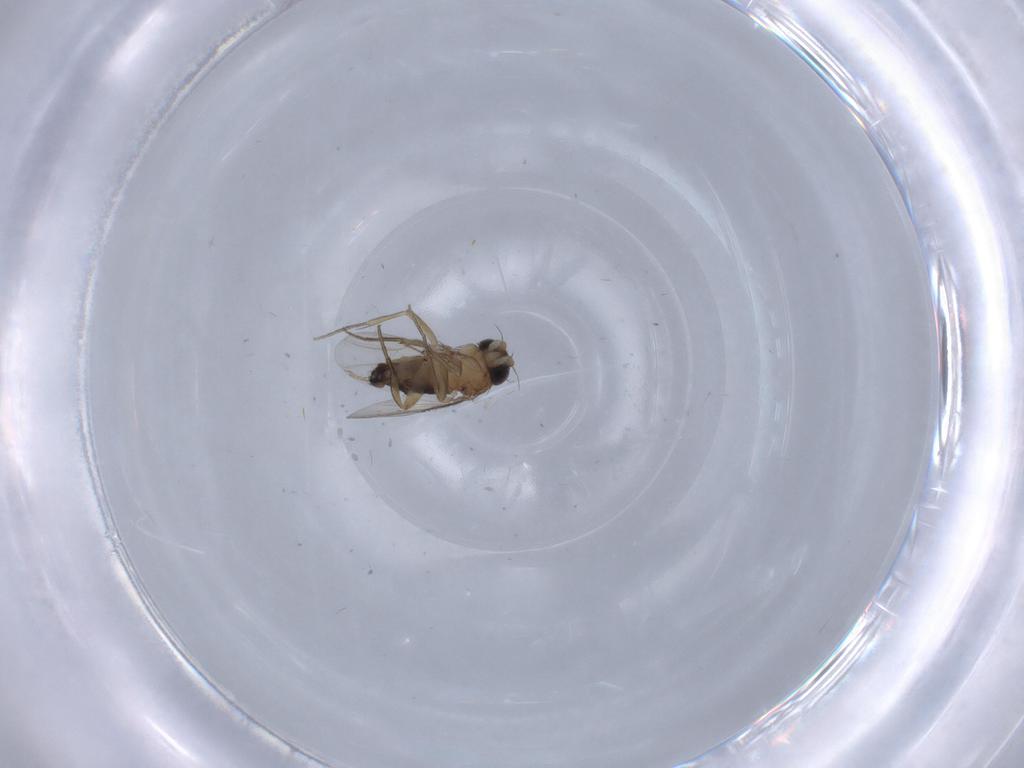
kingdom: Animalia
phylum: Arthropoda
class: Insecta
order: Diptera
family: Phoridae
